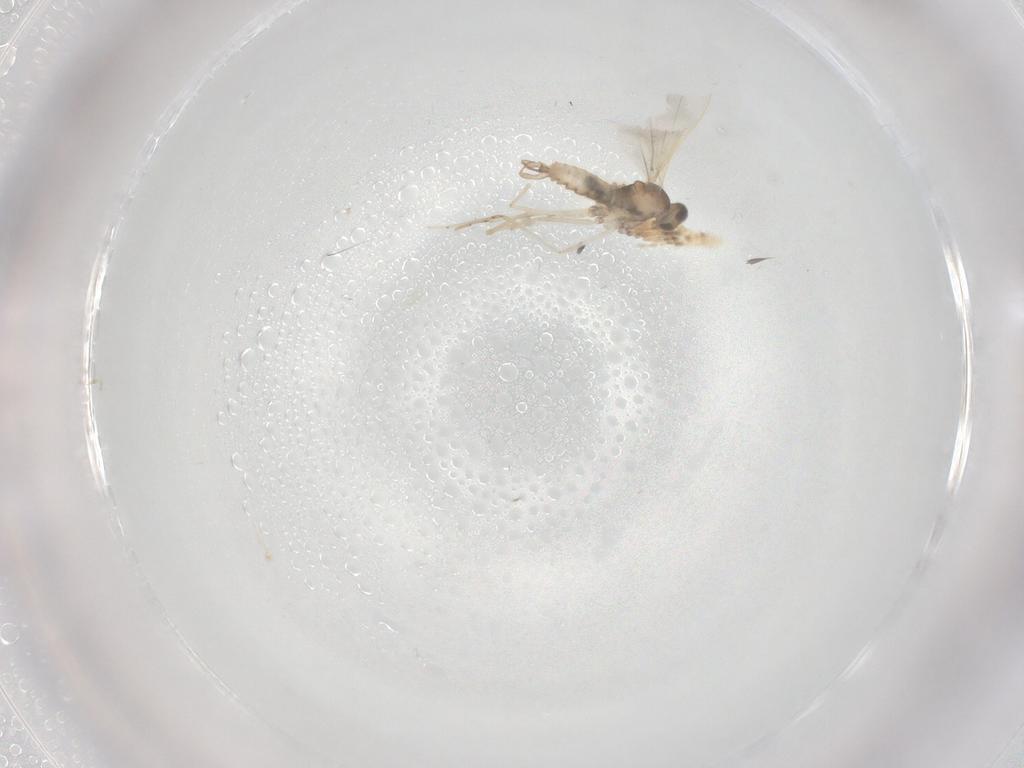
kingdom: Animalia
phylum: Arthropoda
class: Insecta
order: Diptera
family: Cecidomyiidae
